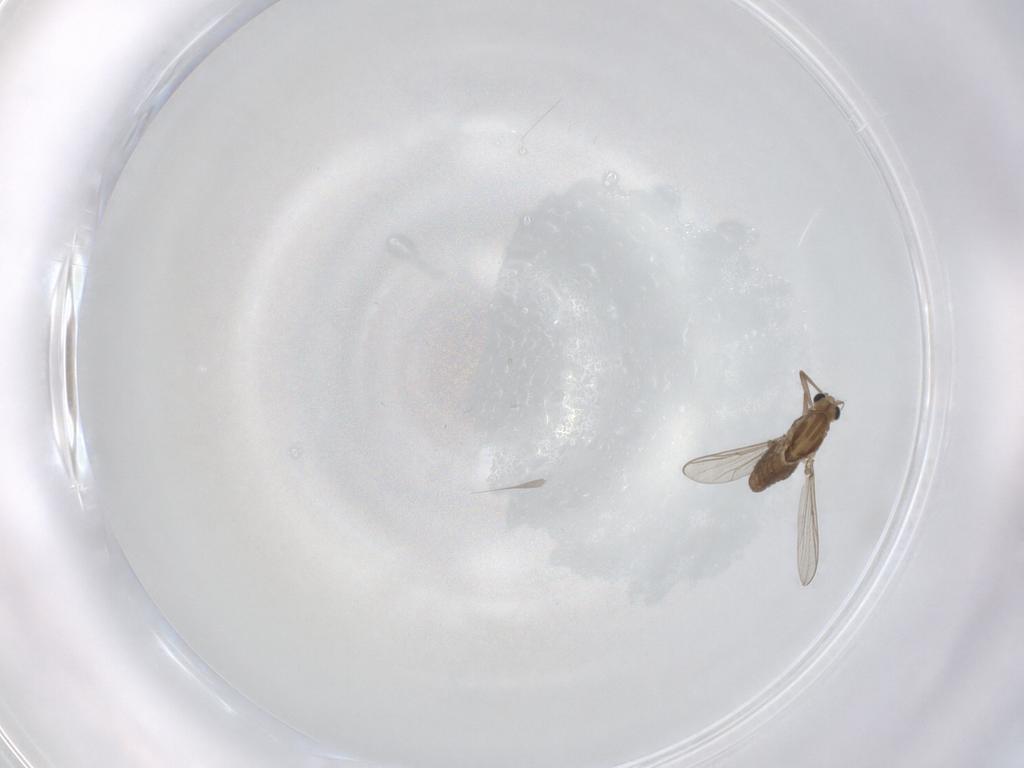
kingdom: Animalia
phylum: Arthropoda
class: Insecta
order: Diptera
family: Chironomidae
